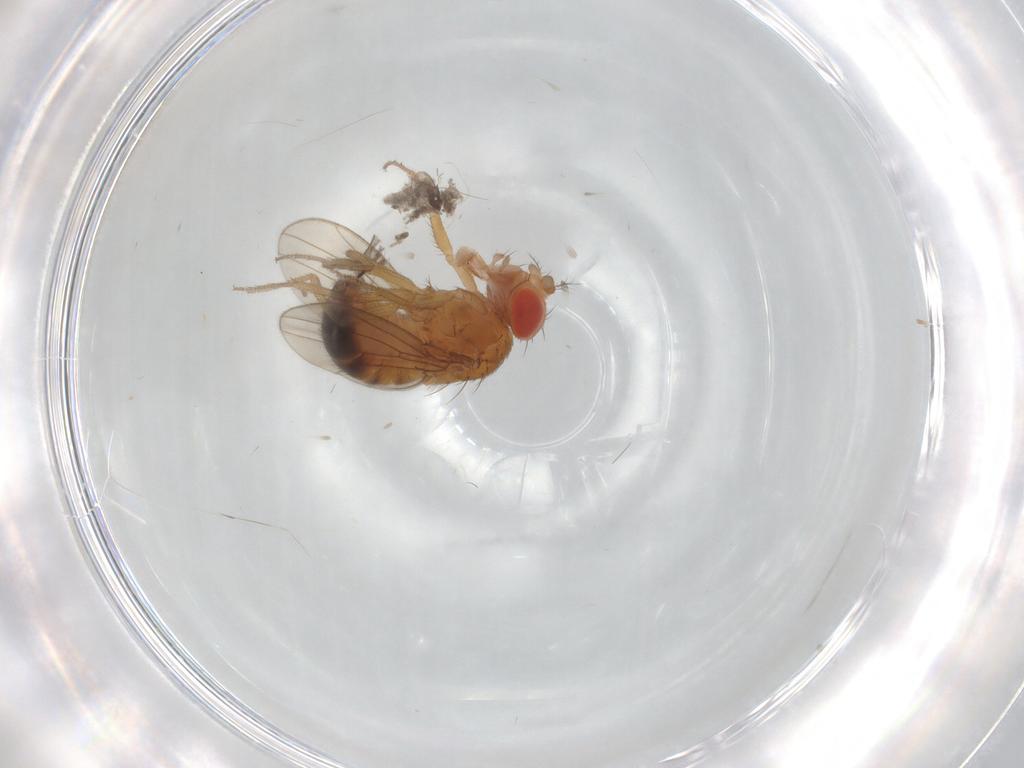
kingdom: Animalia
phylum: Arthropoda
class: Insecta
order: Diptera
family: Drosophilidae
